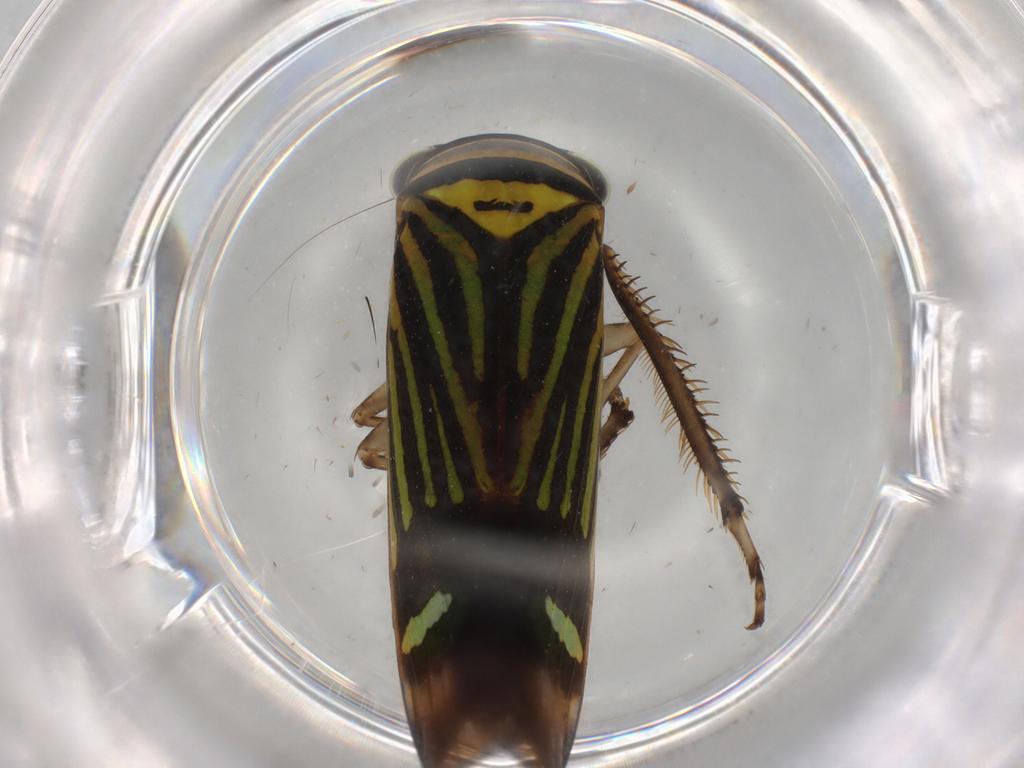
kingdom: Animalia
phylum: Arthropoda
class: Insecta
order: Hemiptera
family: Cicadellidae
